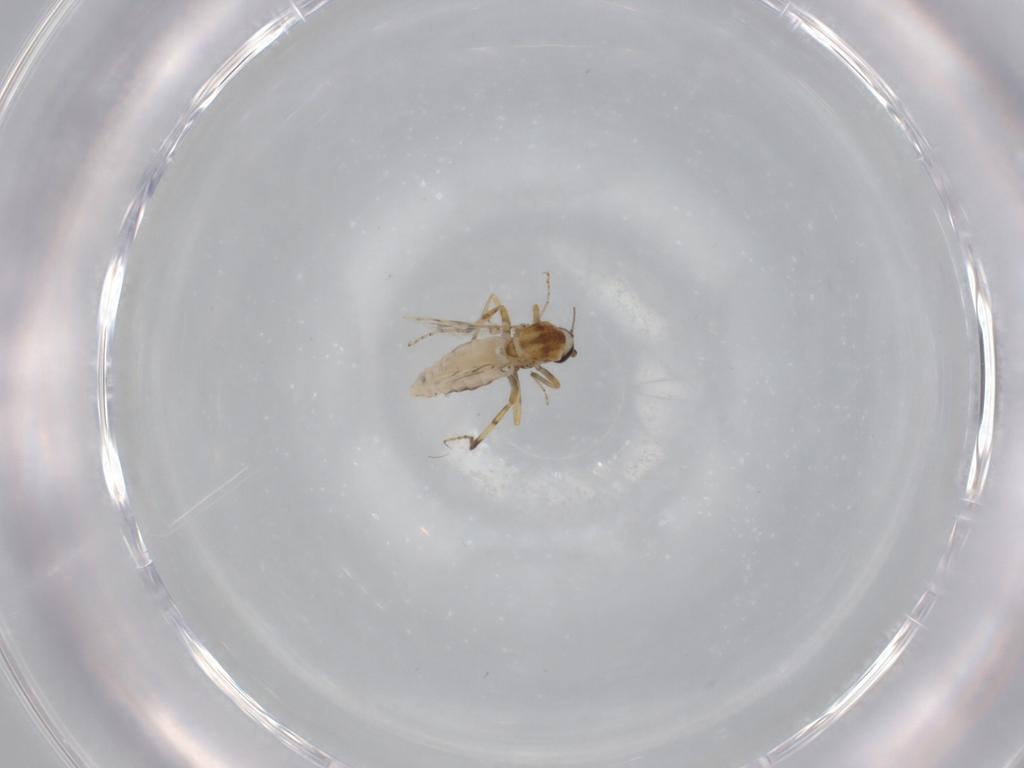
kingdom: Animalia
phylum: Arthropoda
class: Insecta
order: Diptera
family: Ceratopogonidae
